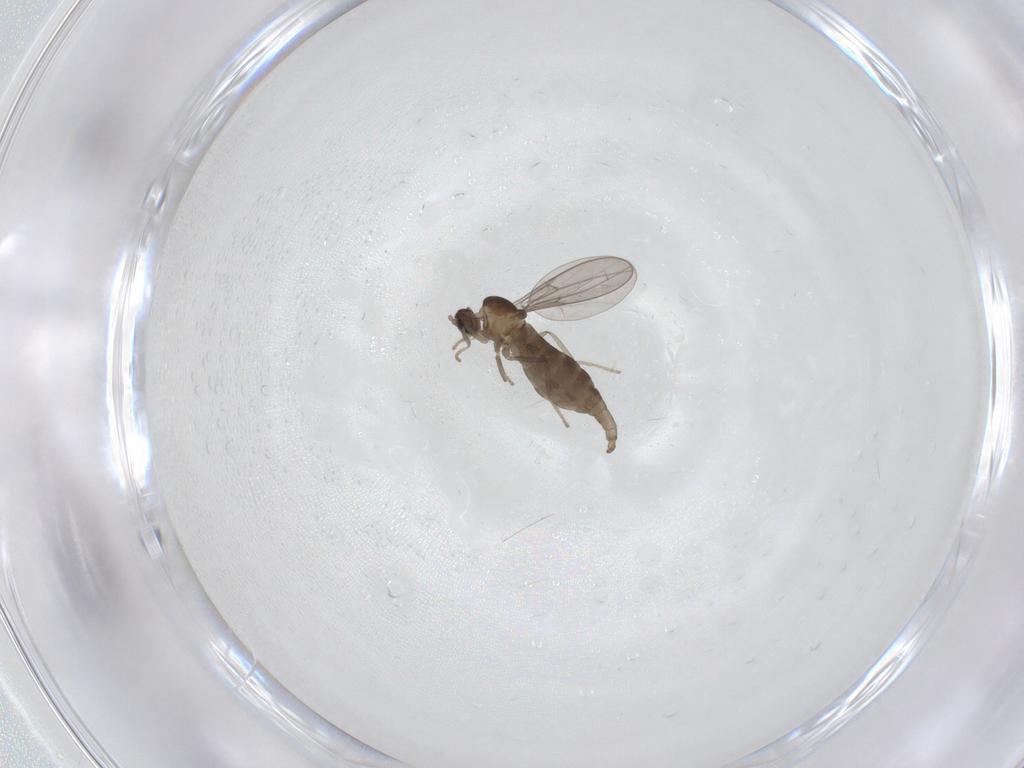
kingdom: Animalia
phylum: Arthropoda
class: Insecta
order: Diptera
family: Cecidomyiidae
